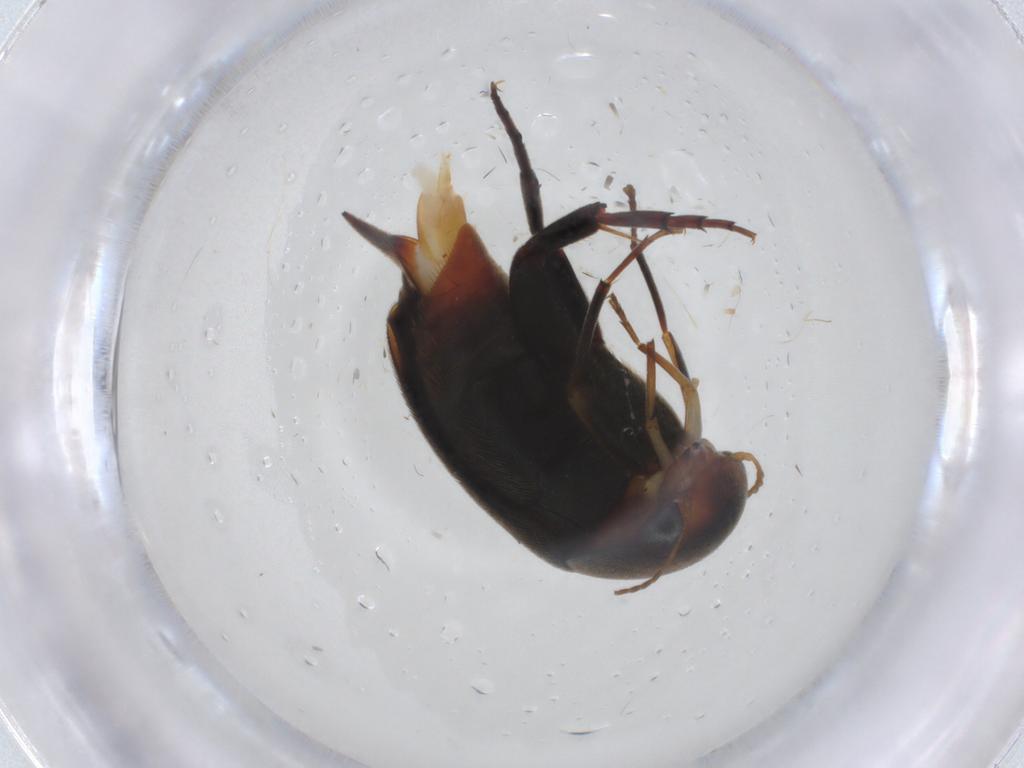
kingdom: Animalia
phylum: Arthropoda
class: Insecta
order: Coleoptera
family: Mordellidae
